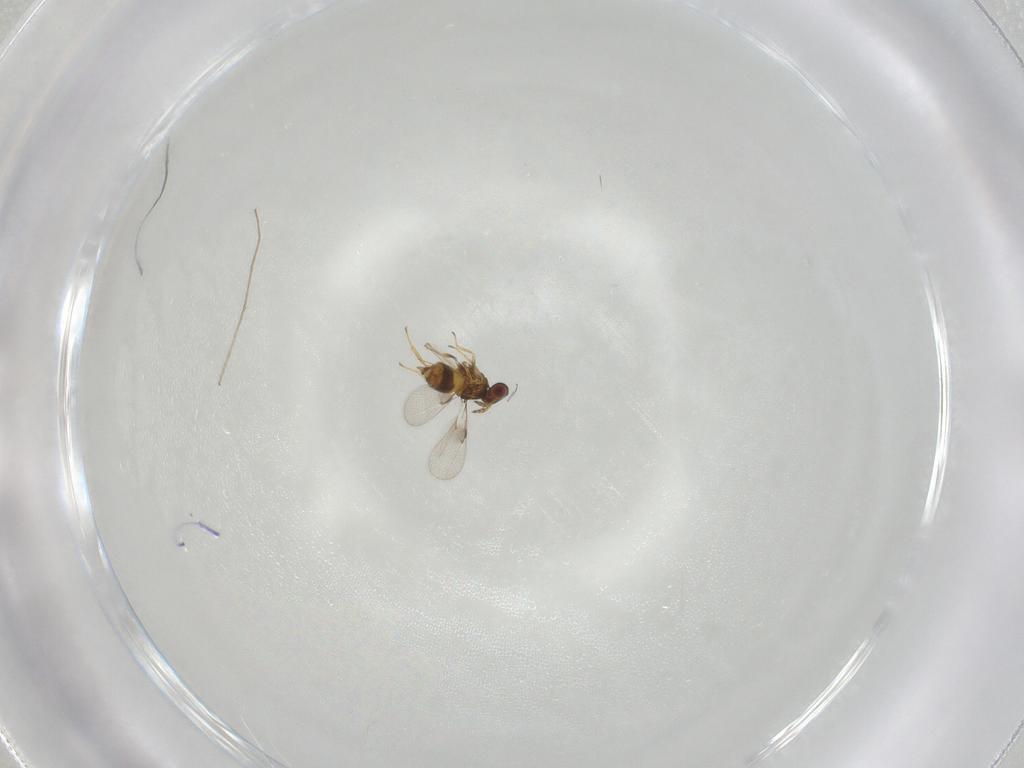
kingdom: Animalia
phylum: Arthropoda
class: Insecta
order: Hymenoptera
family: Trichogrammatidae
